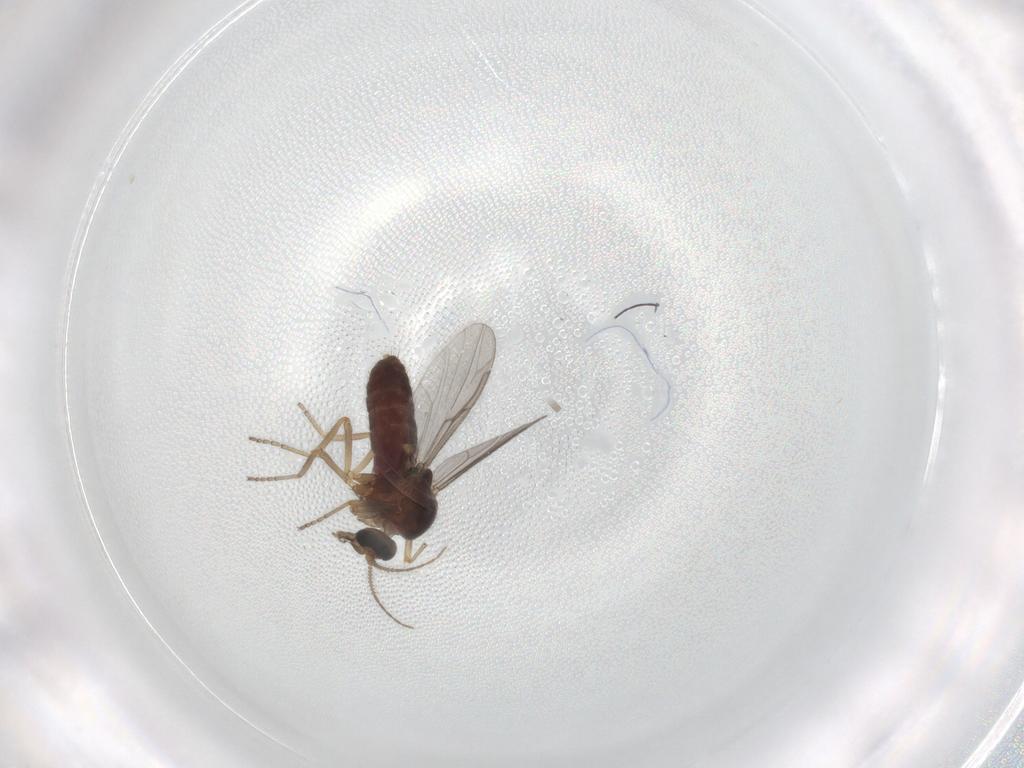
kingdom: Animalia
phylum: Arthropoda
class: Insecta
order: Diptera
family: Ceratopogonidae
